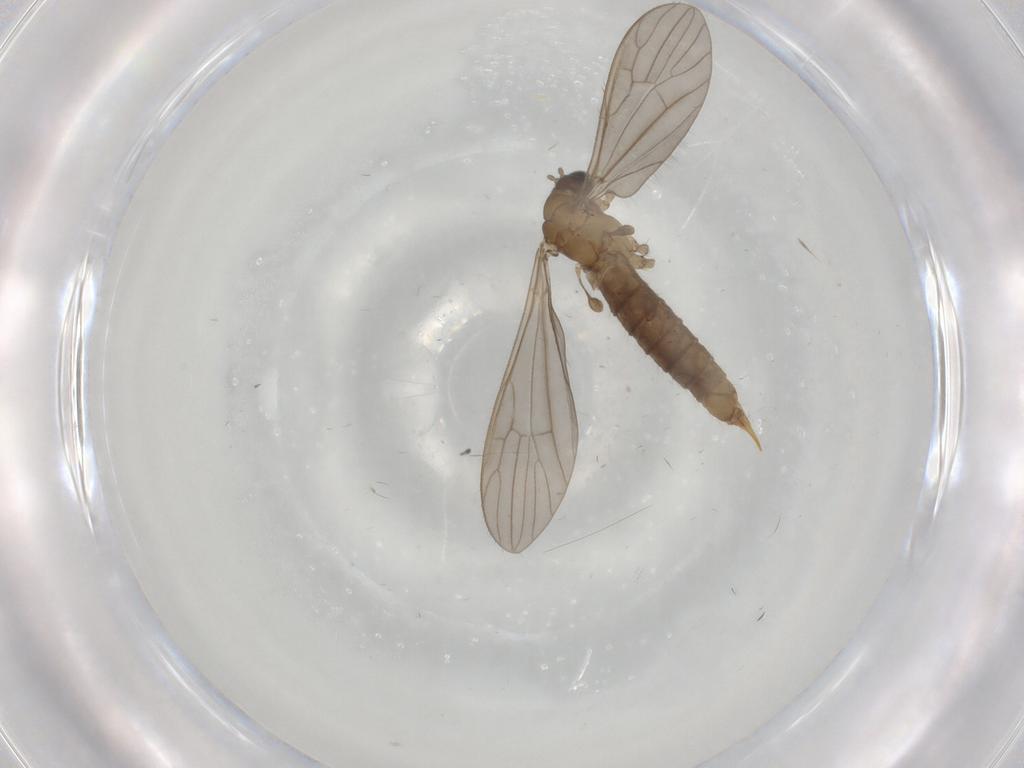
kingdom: Animalia
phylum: Arthropoda
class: Insecta
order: Diptera
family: Limoniidae
